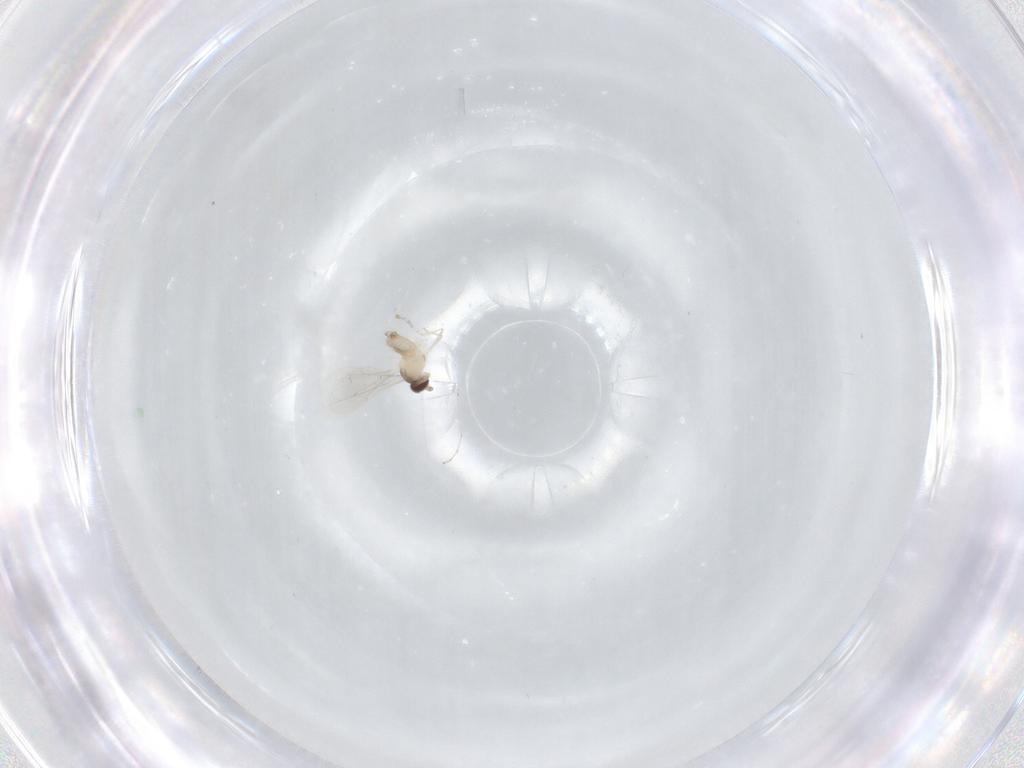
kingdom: Animalia
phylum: Arthropoda
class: Insecta
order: Diptera
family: Cecidomyiidae
